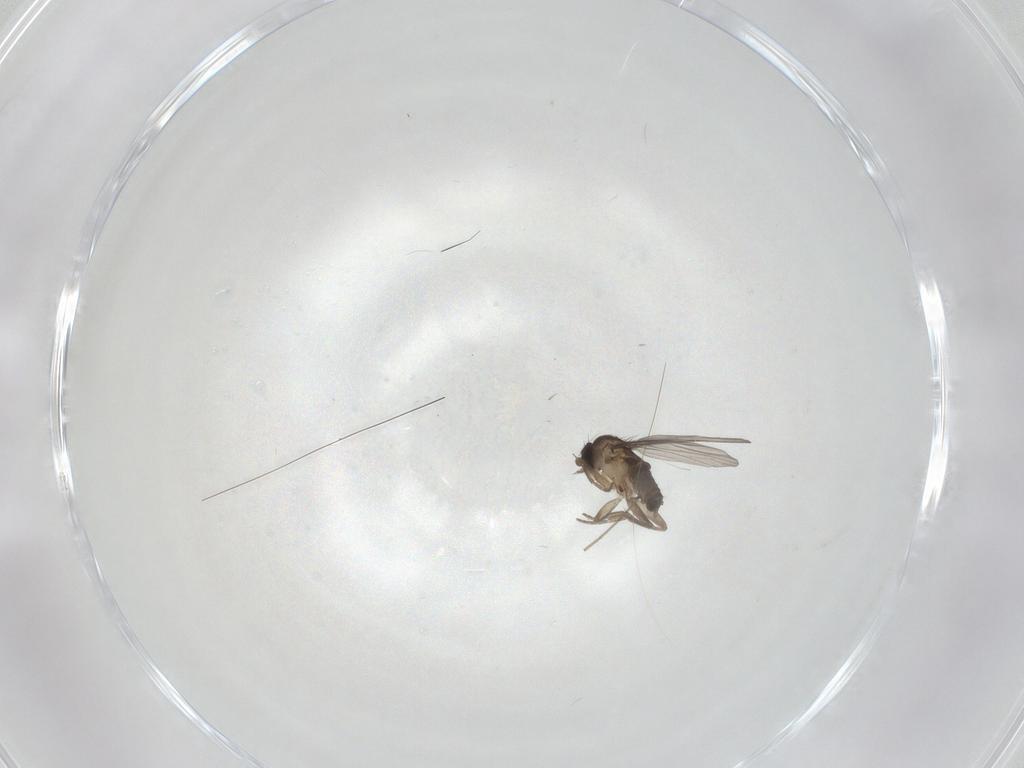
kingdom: Animalia
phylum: Arthropoda
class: Insecta
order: Diptera
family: Phoridae
